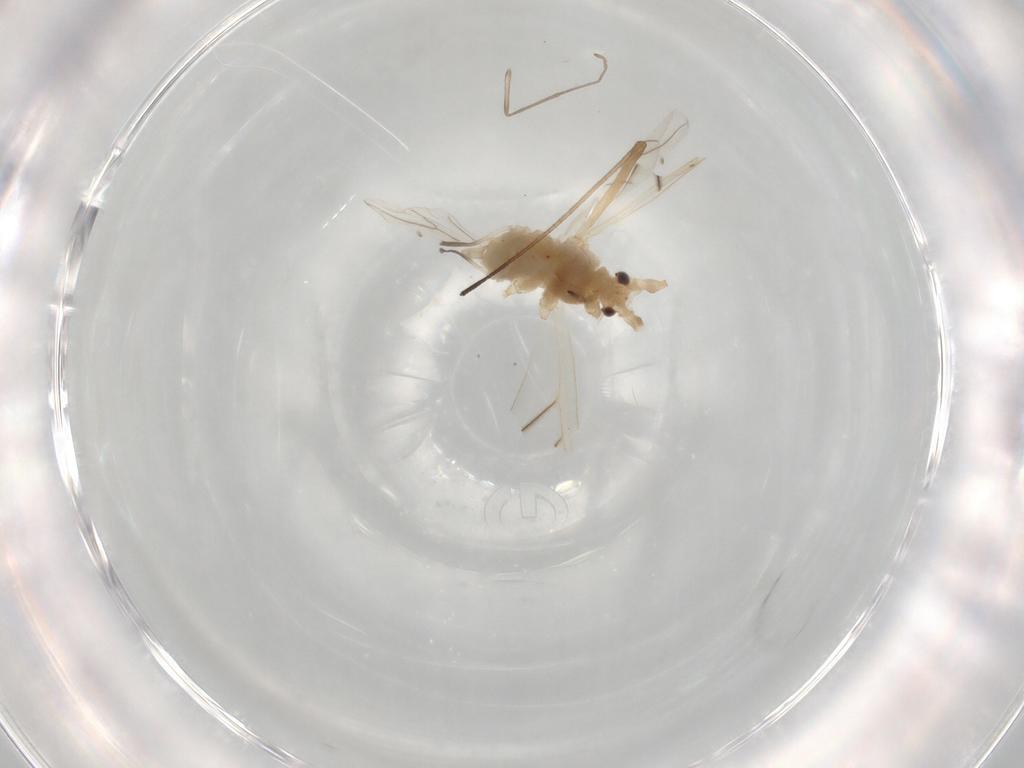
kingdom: Animalia
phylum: Arthropoda
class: Insecta
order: Hemiptera
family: Aphididae
